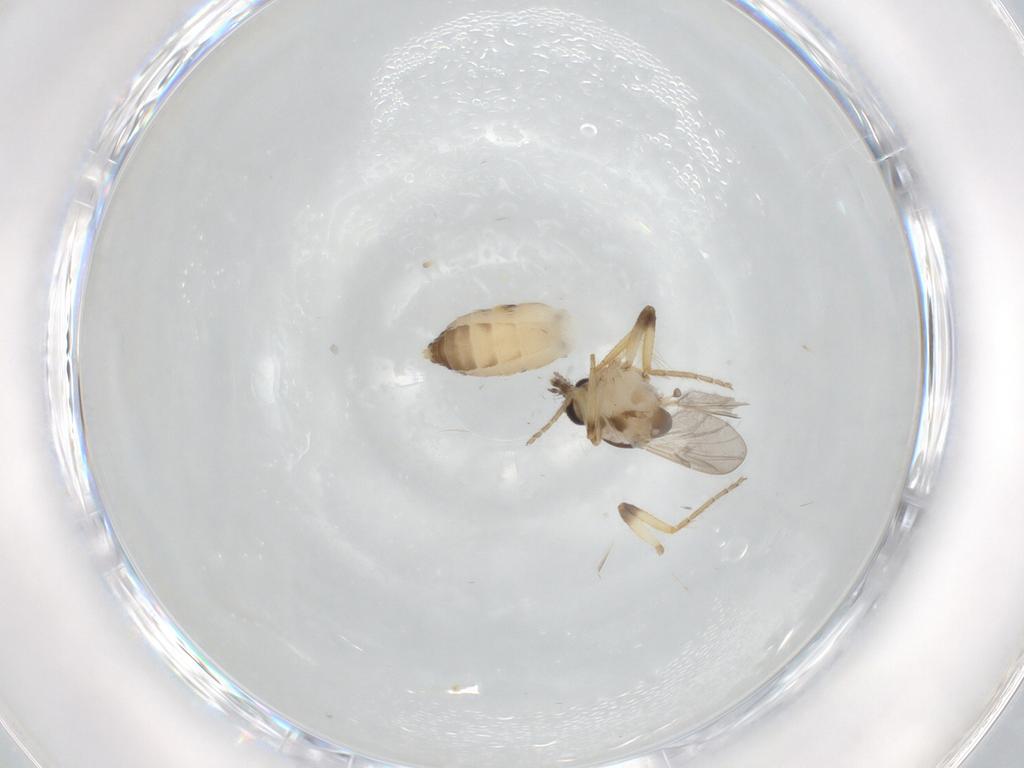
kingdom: Animalia
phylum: Arthropoda
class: Insecta
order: Diptera
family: Ceratopogonidae
